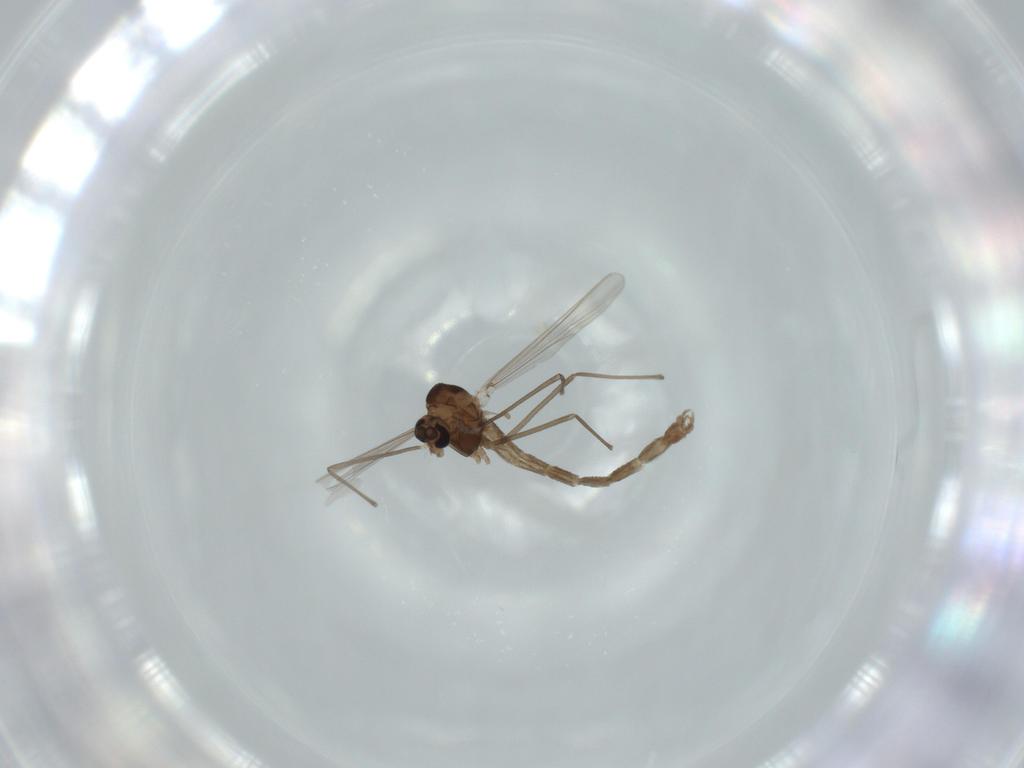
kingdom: Animalia
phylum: Arthropoda
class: Insecta
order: Diptera
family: Chironomidae
